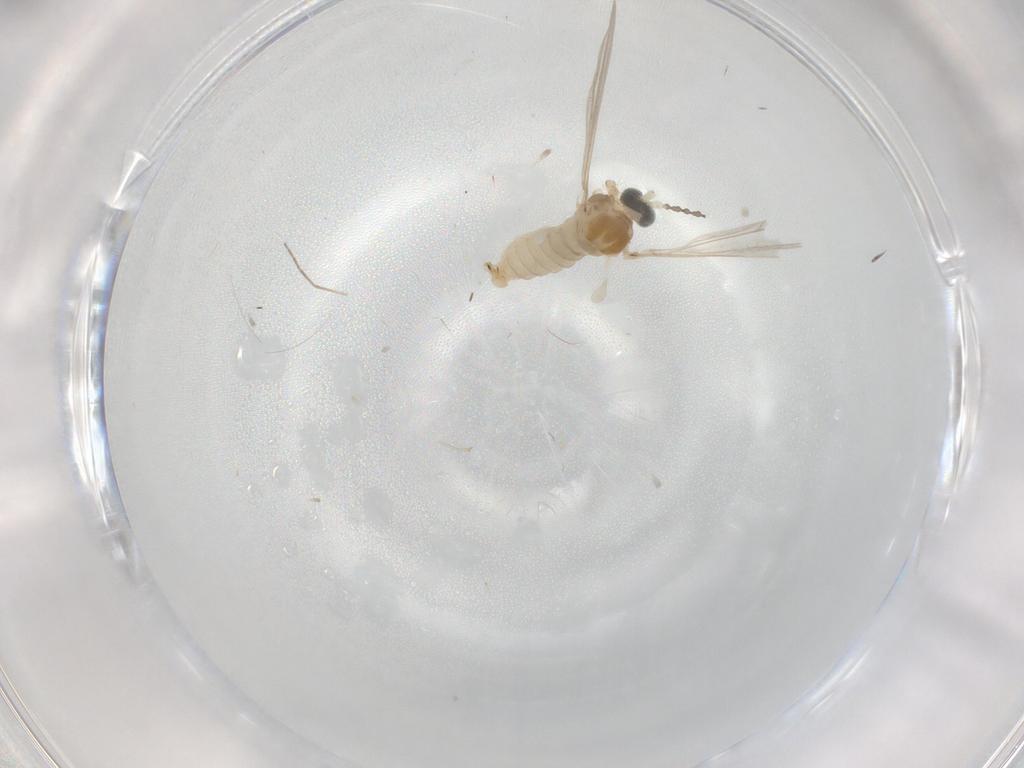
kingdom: Animalia
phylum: Arthropoda
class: Insecta
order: Diptera
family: Cecidomyiidae
